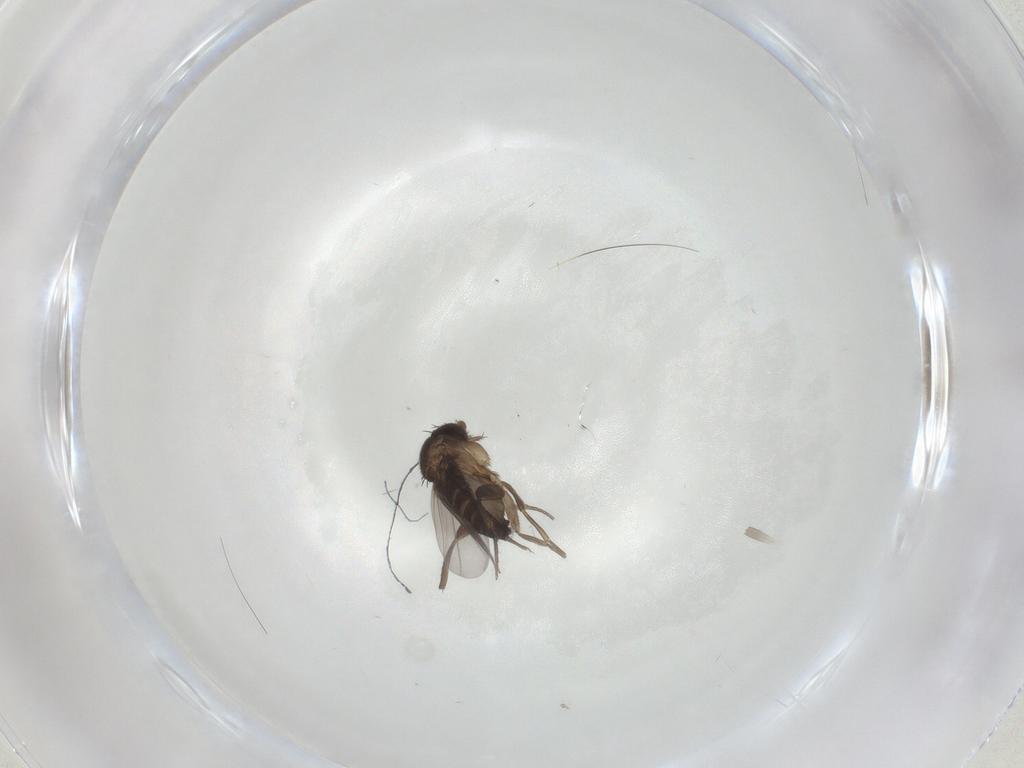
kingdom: Animalia
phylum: Arthropoda
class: Insecta
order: Diptera
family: Phoridae
